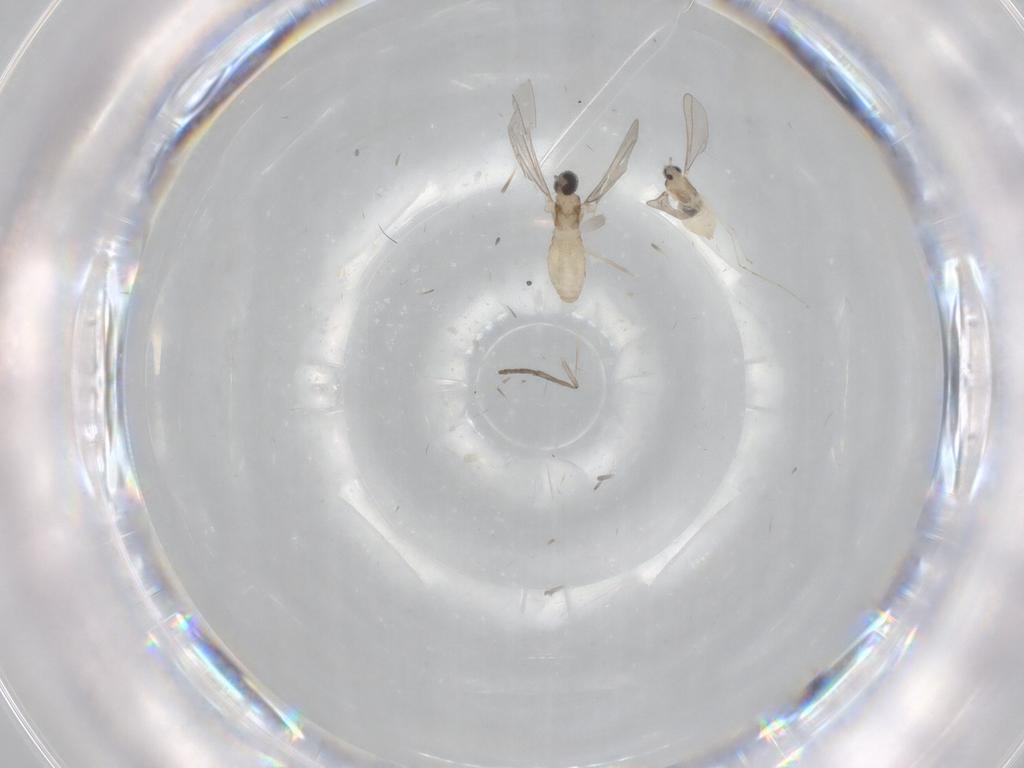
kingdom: Animalia
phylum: Arthropoda
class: Insecta
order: Diptera
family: Cecidomyiidae
